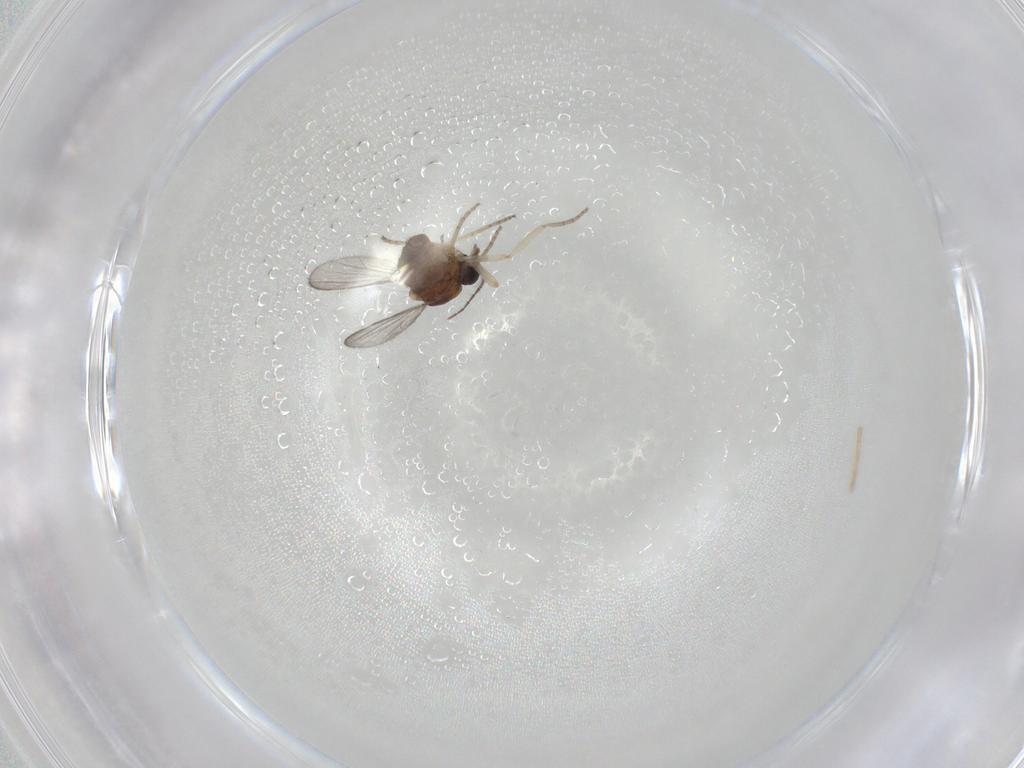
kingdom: Animalia
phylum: Arthropoda
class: Insecta
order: Diptera
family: Ceratopogonidae
